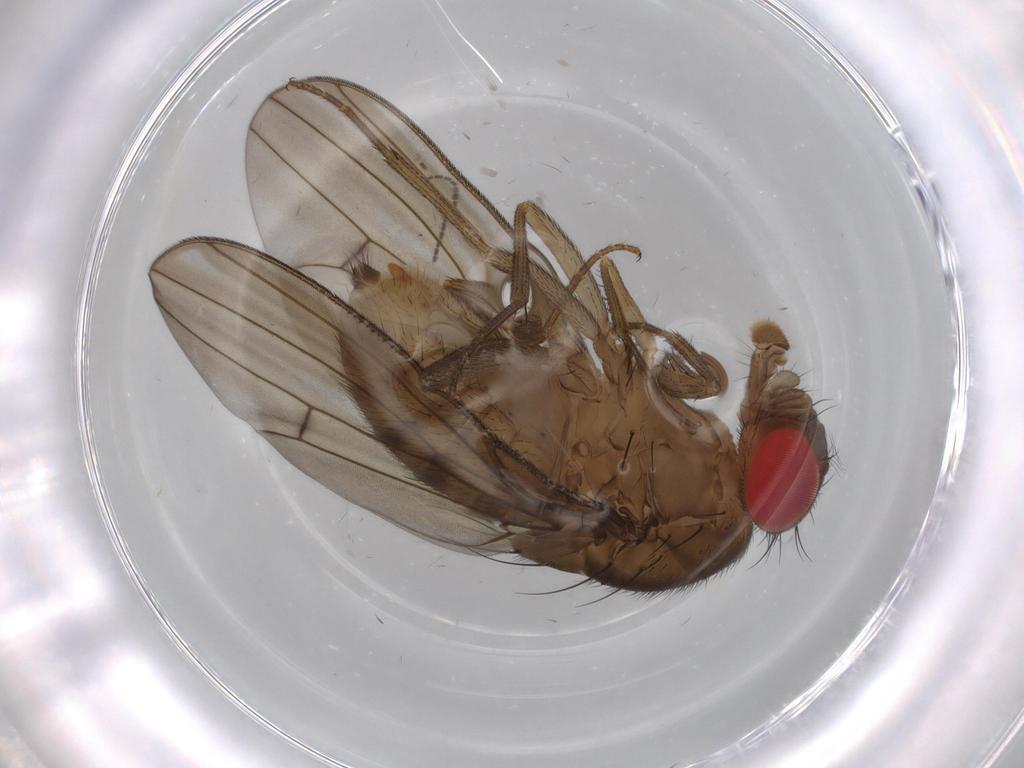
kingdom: Animalia
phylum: Arthropoda
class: Insecta
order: Diptera
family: Drosophilidae
